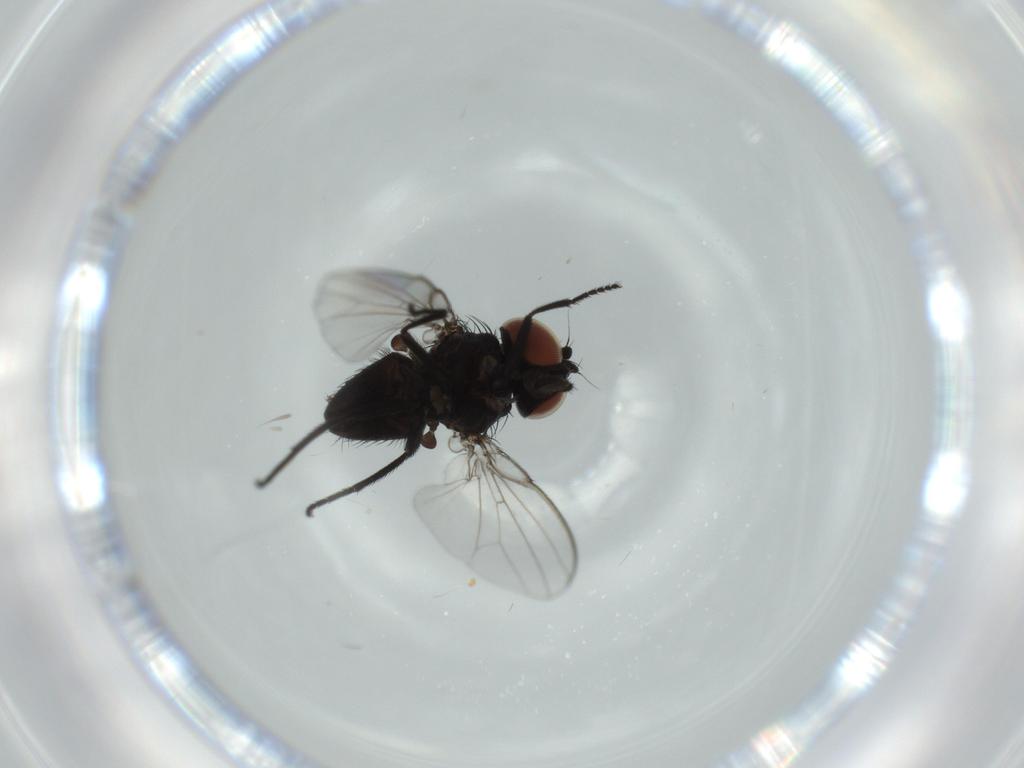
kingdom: Animalia
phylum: Arthropoda
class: Insecta
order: Diptera
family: Milichiidae
